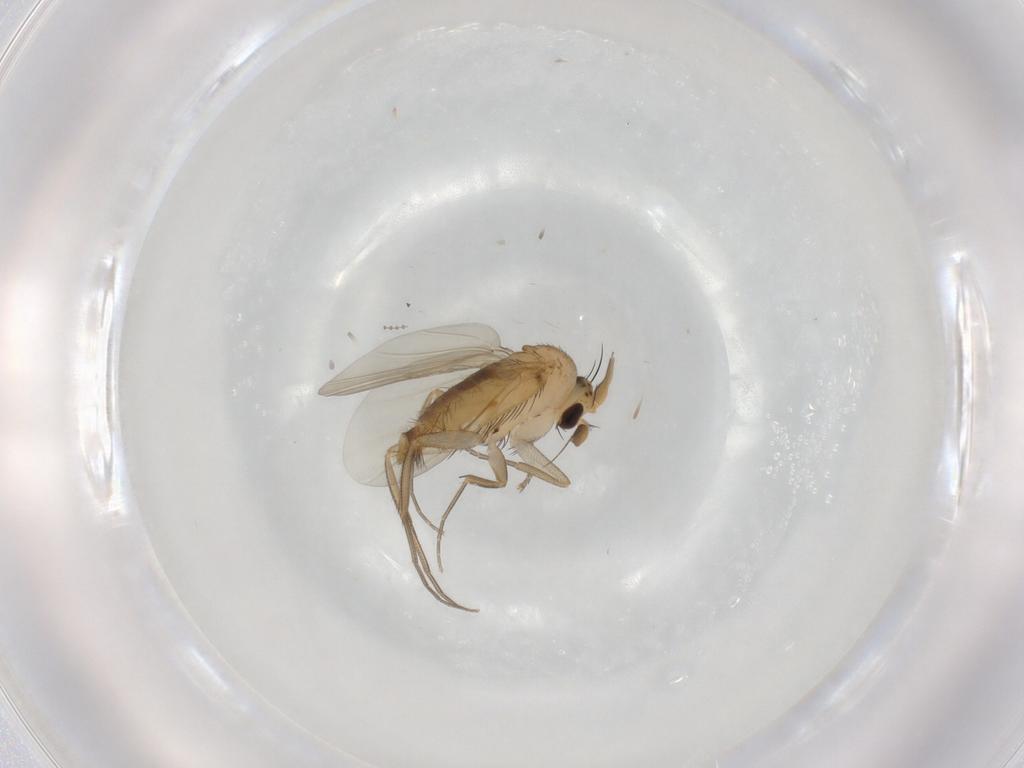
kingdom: Animalia
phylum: Arthropoda
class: Insecta
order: Diptera
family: Phoridae
